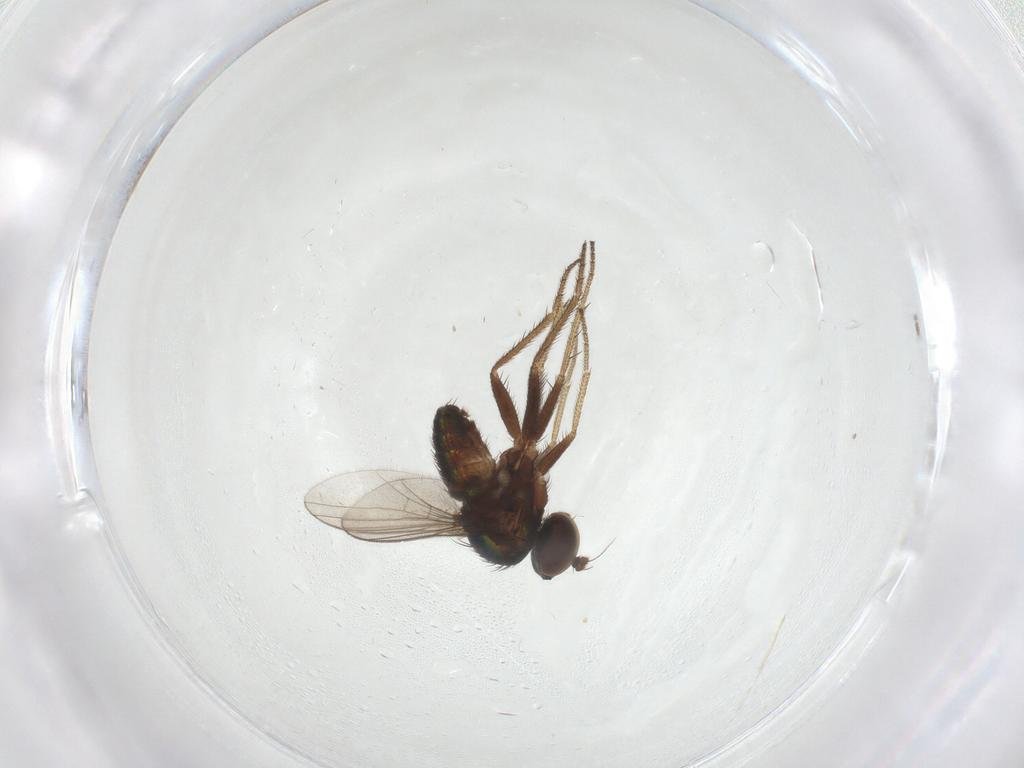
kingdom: Animalia
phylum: Arthropoda
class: Insecta
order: Diptera
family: Dolichopodidae
